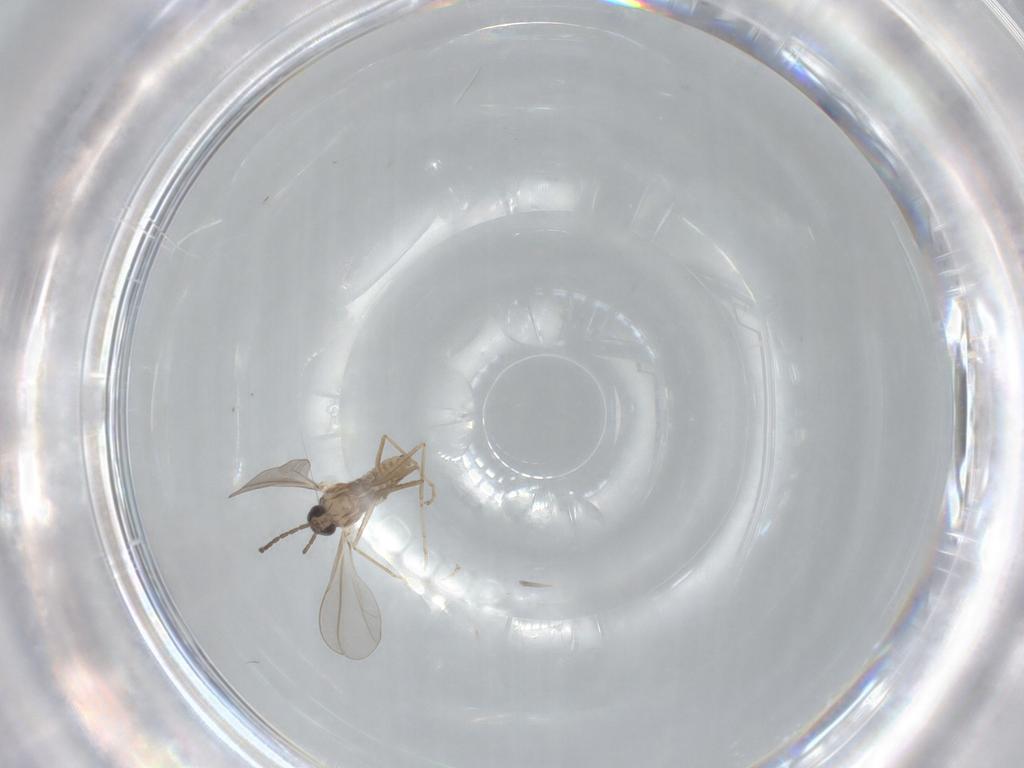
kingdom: Animalia
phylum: Arthropoda
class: Insecta
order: Diptera
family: Cecidomyiidae
